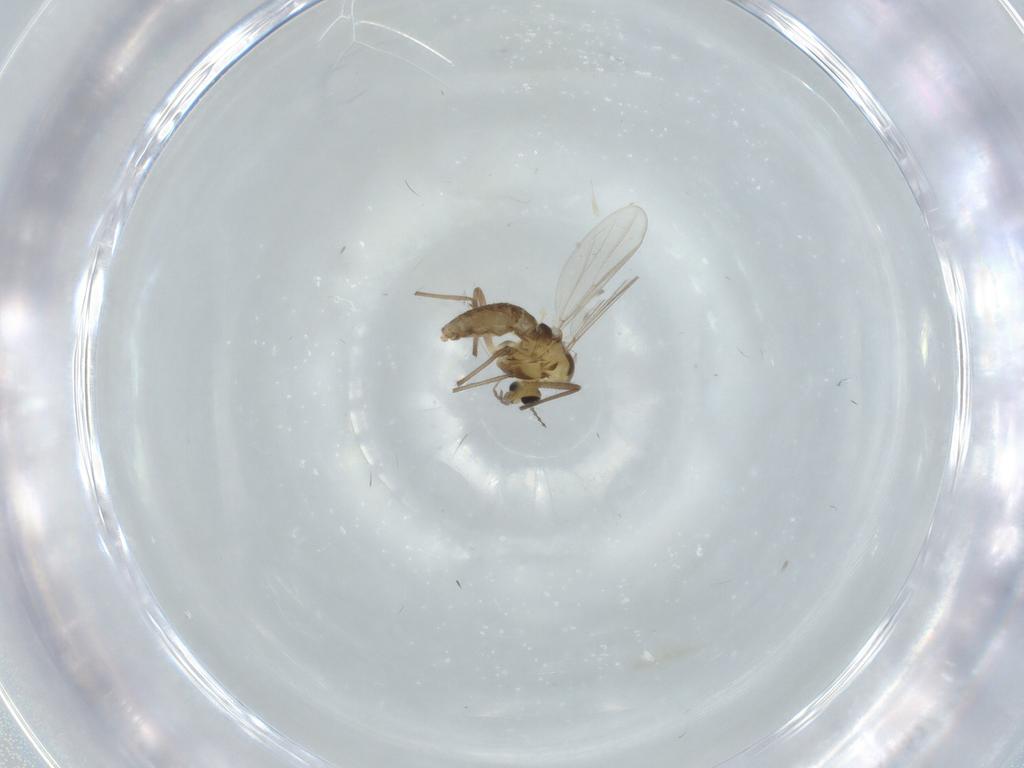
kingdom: Animalia
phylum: Arthropoda
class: Insecta
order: Diptera
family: Chironomidae
